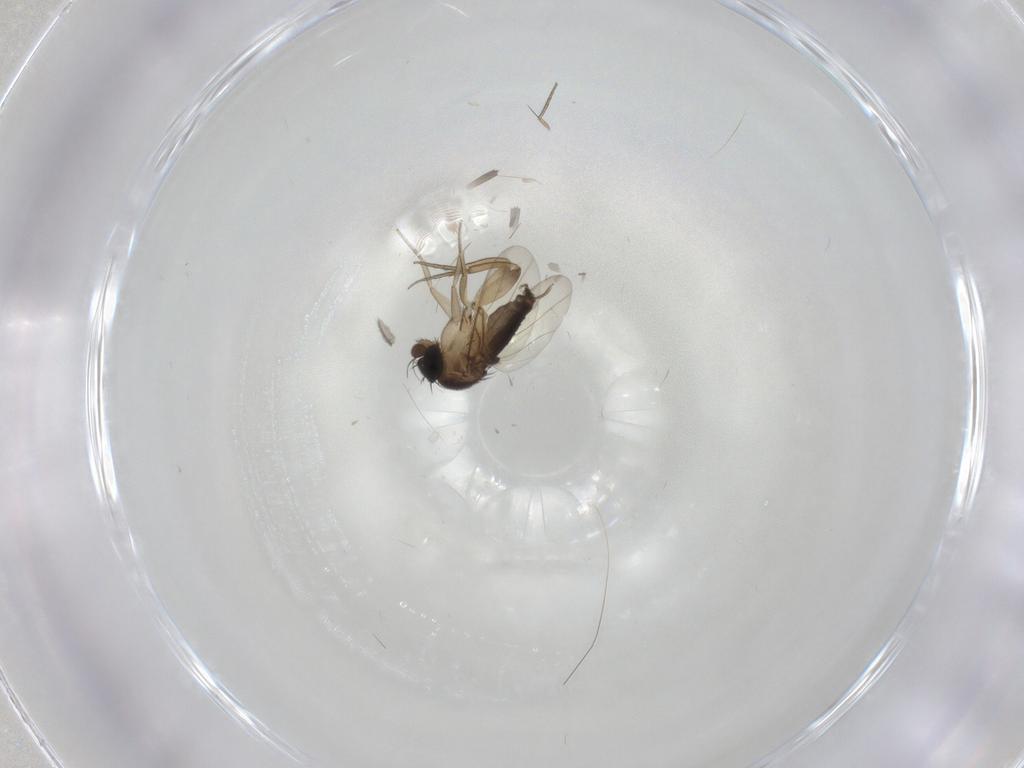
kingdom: Animalia
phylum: Arthropoda
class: Insecta
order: Diptera
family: Phoridae
